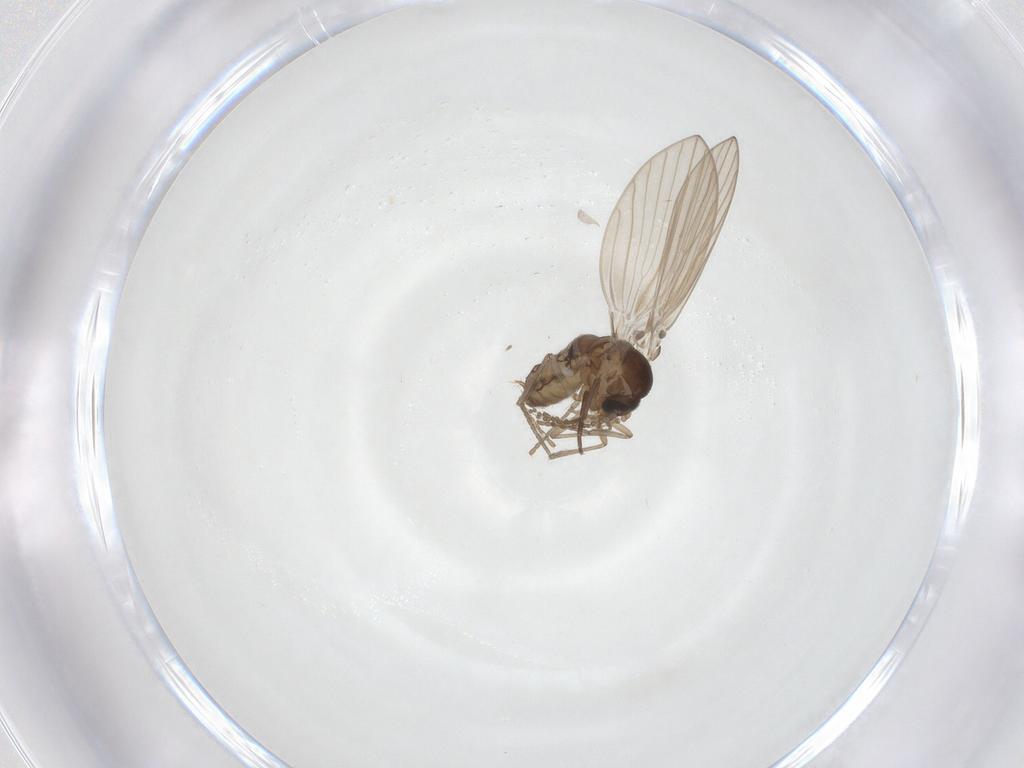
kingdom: Animalia
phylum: Arthropoda
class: Insecta
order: Diptera
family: Psychodidae
